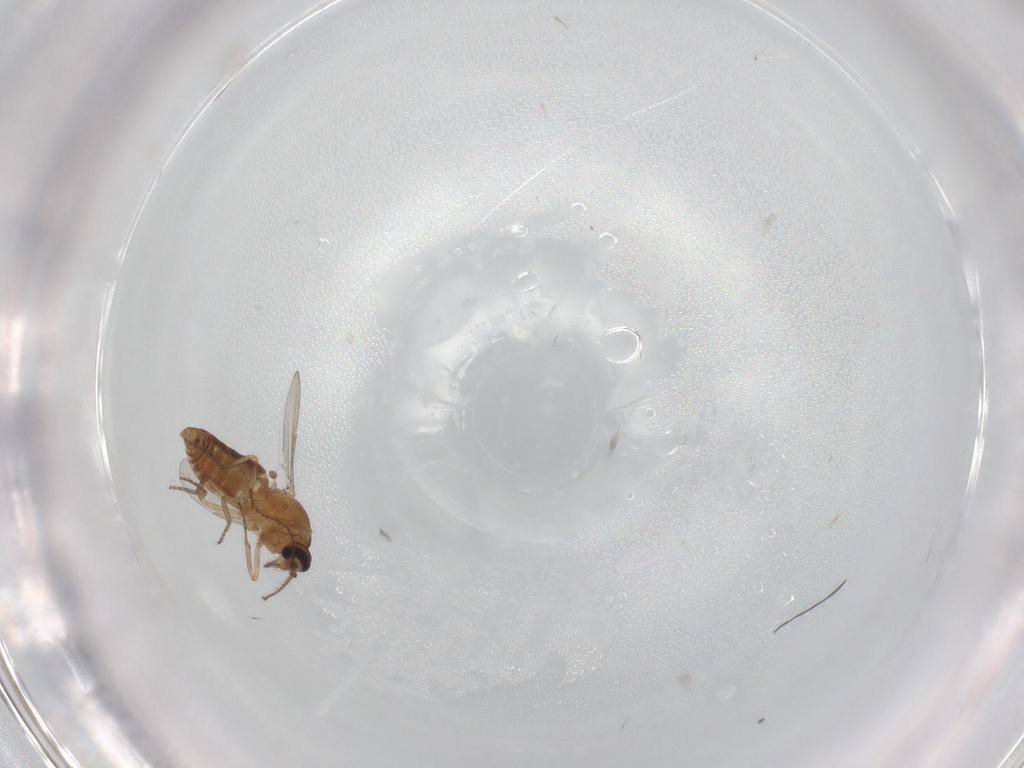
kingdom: Animalia
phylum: Arthropoda
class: Insecta
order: Diptera
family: Ceratopogonidae
